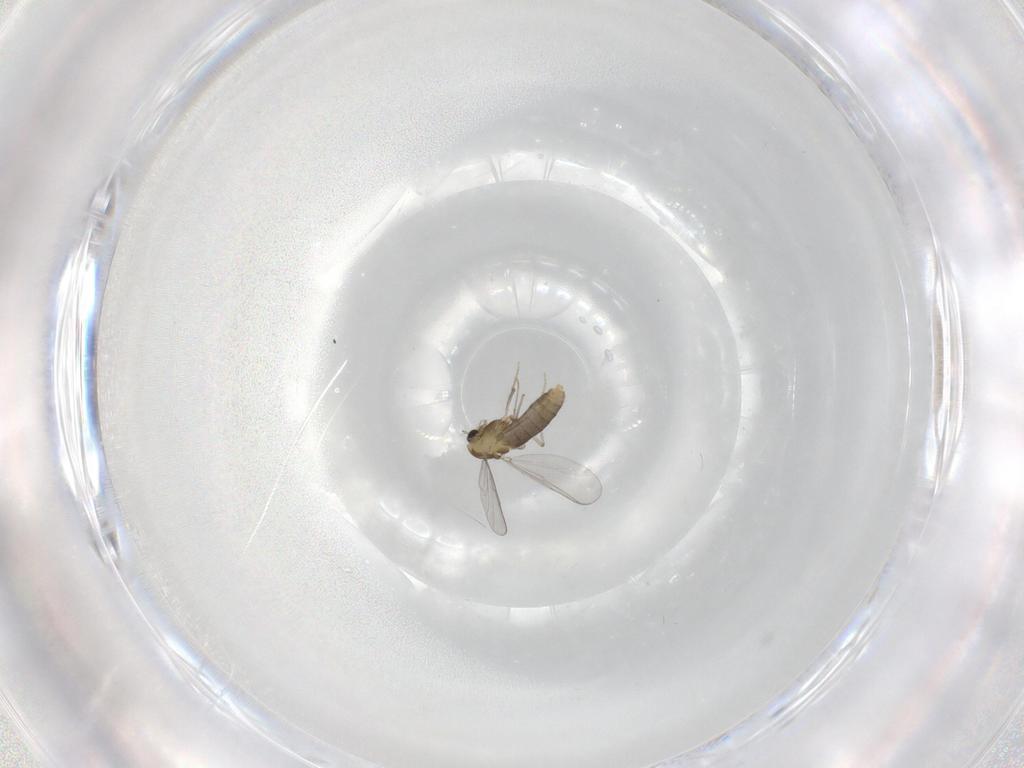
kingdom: Animalia
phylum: Arthropoda
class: Insecta
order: Diptera
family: Chironomidae
